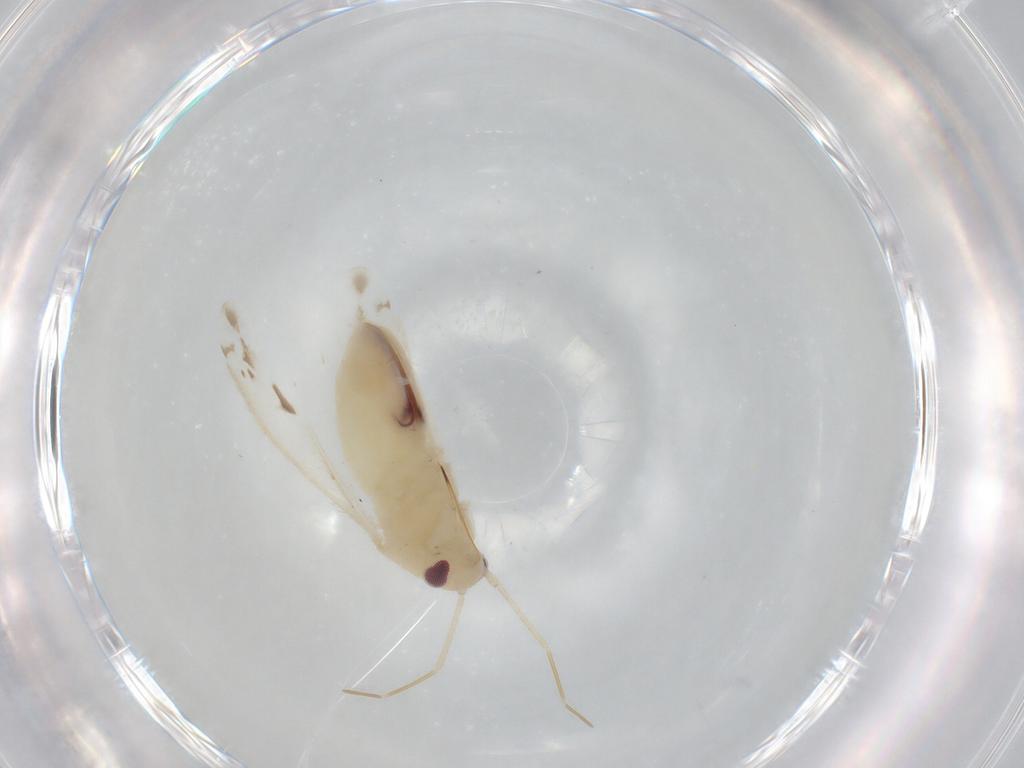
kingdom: Animalia
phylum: Arthropoda
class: Insecta
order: Hemiptera
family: Miridae
